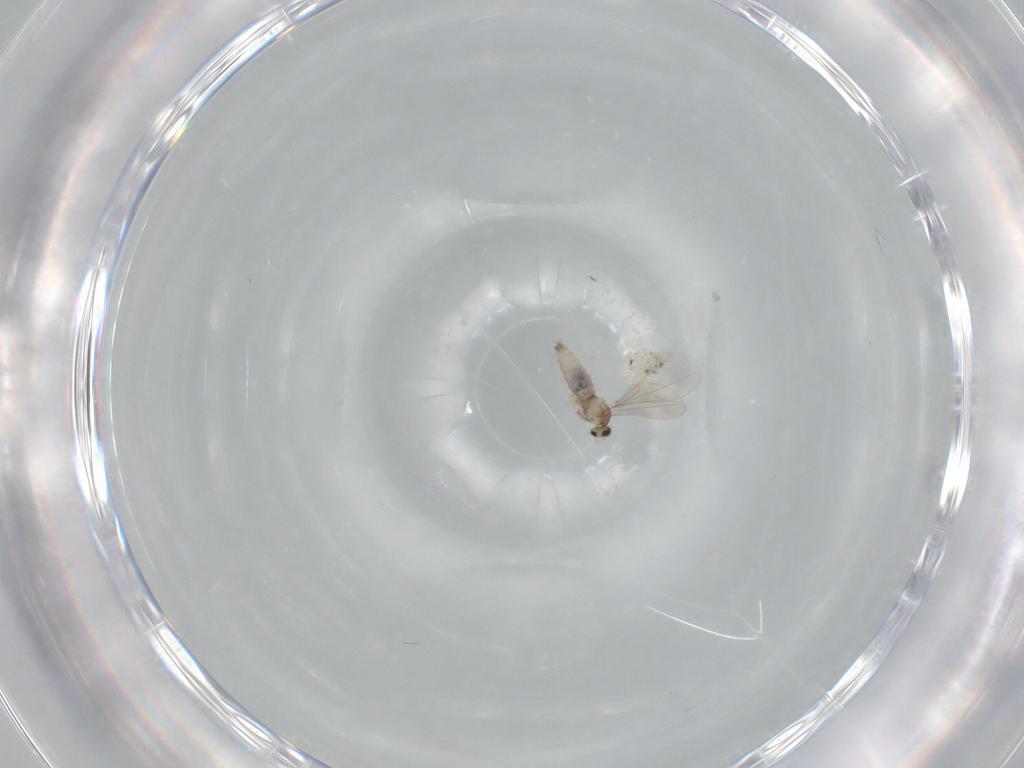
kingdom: Animalia
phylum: Arthropoda
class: Insecta
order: Diptera
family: Cecidomyiidae
